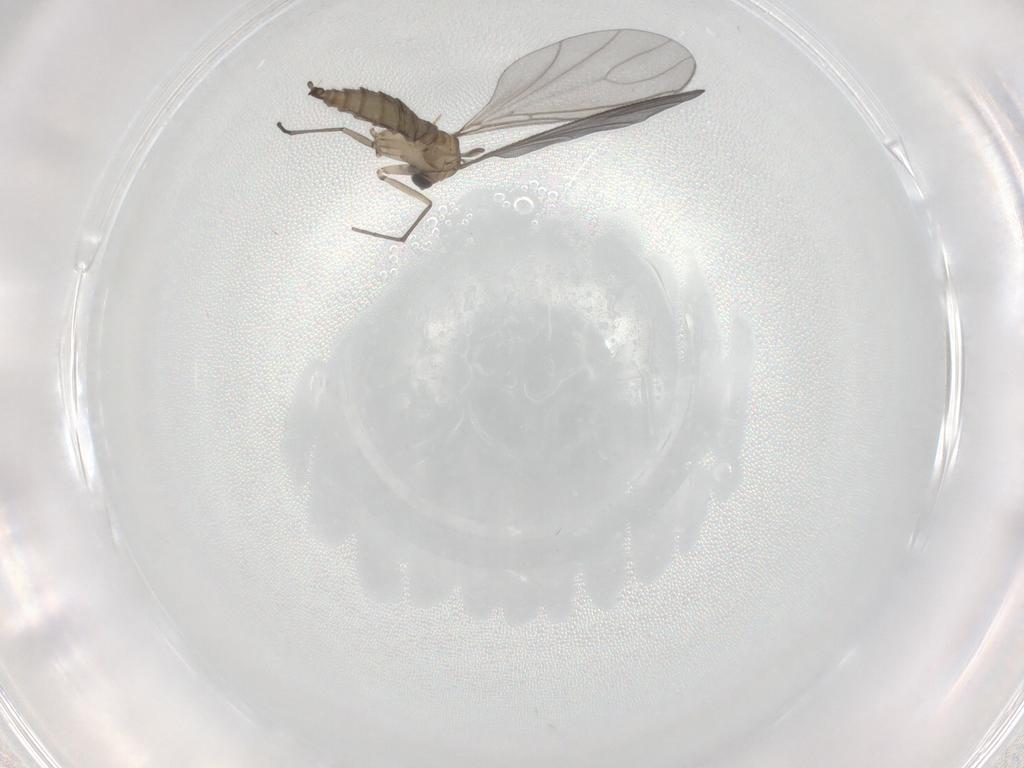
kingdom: Animalia
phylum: Arthropoda
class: Insecta
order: Diptera
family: Sciaridae
